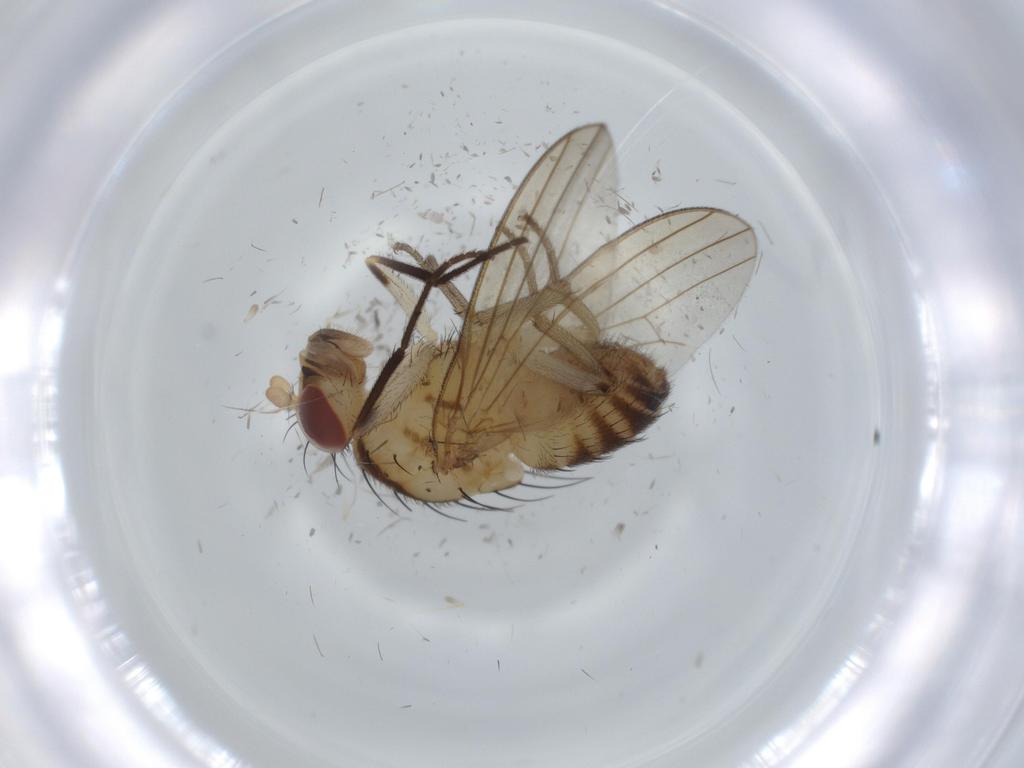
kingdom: Animalia
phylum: Arthropoda
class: Insecta
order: Diptera
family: Lauxaniidae
